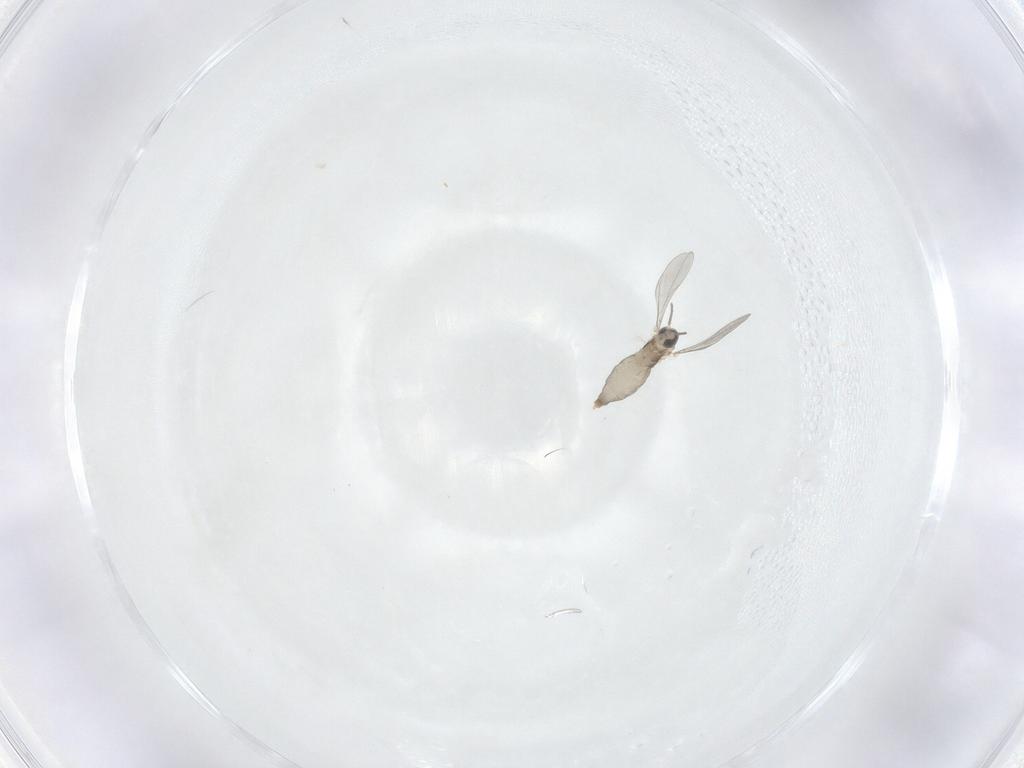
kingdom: Animalia
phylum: Arthropoda
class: Insecta
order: Diptera
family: Cecidomyiidae
